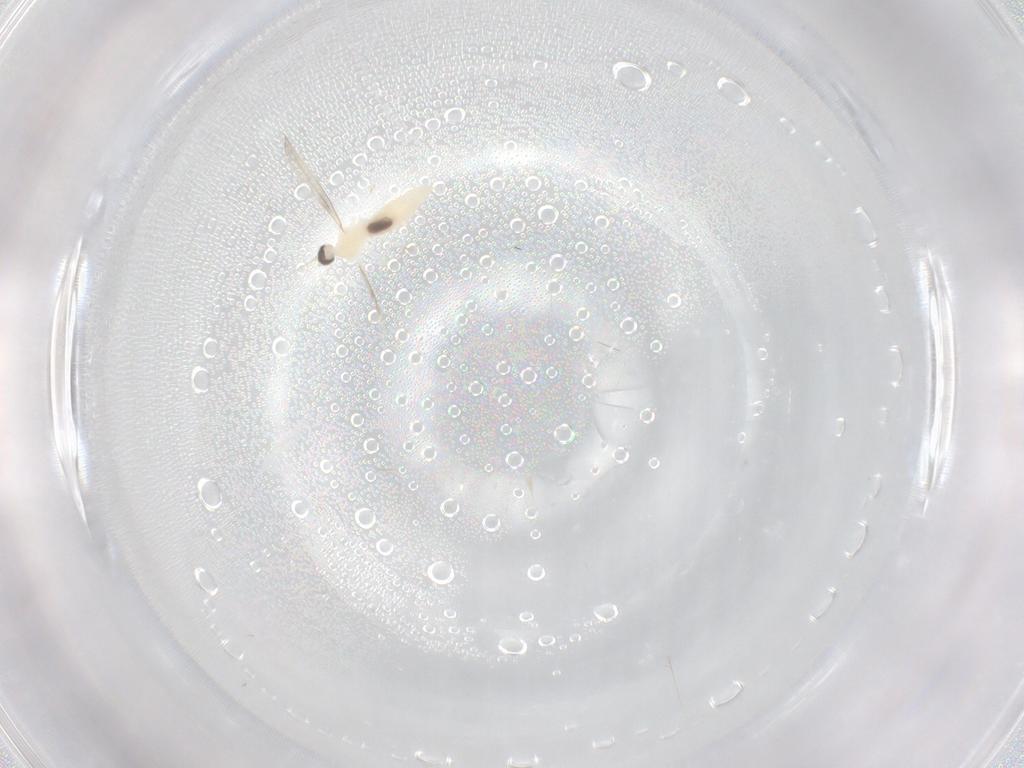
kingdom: Animalia
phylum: Arthropoda
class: Insecta
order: Diptera
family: Cecidomyiidae
